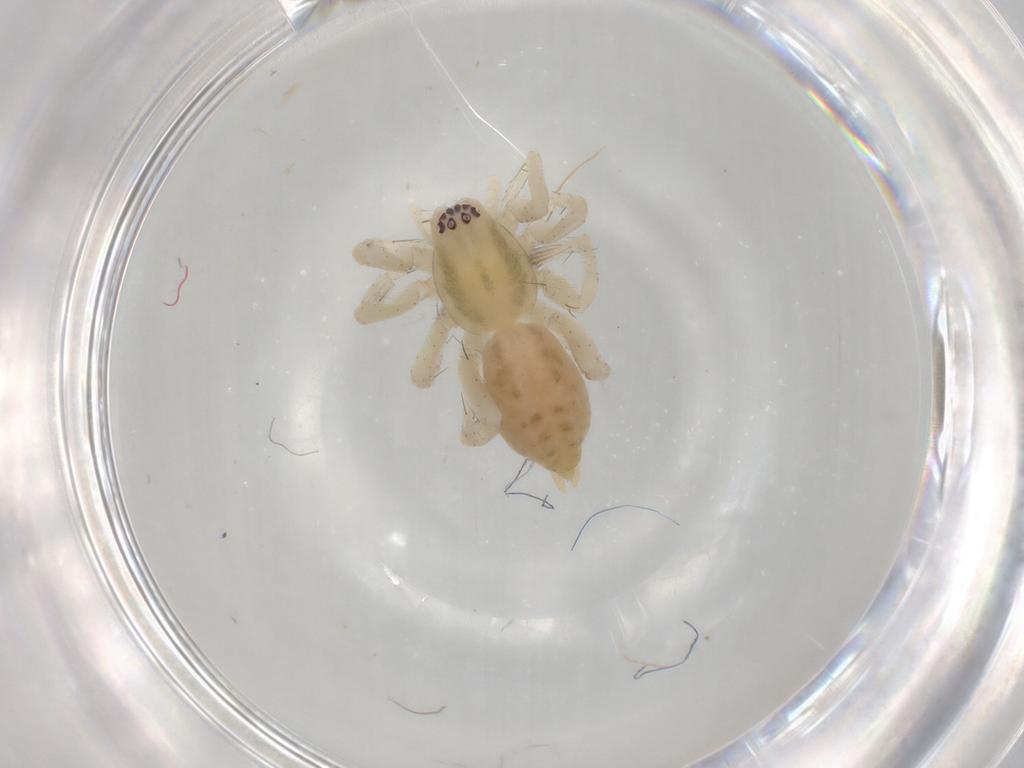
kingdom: Animalia
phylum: Arthropoda
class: Arachnida
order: Araneae
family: Anyphaenidae
